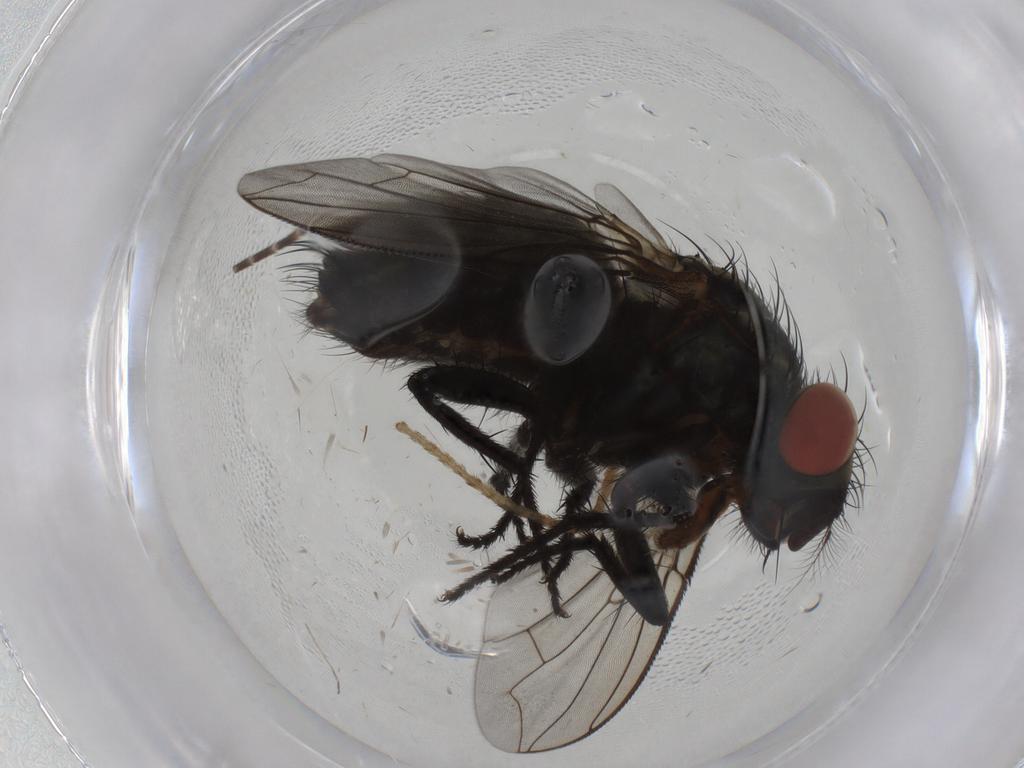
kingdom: Animalia
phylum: Arthropoda
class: Insecta
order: Diptera
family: Sarcophagidae
